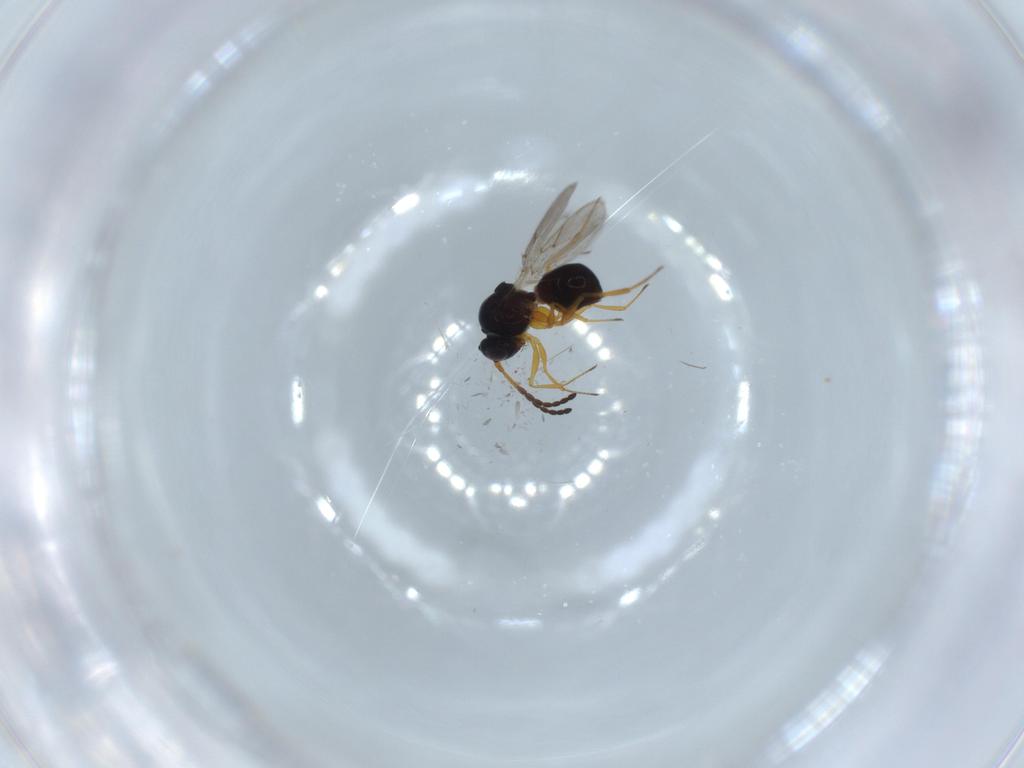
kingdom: Animalia
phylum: Arthropoda
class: Insecta
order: Hymenoptera
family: Figitidae
